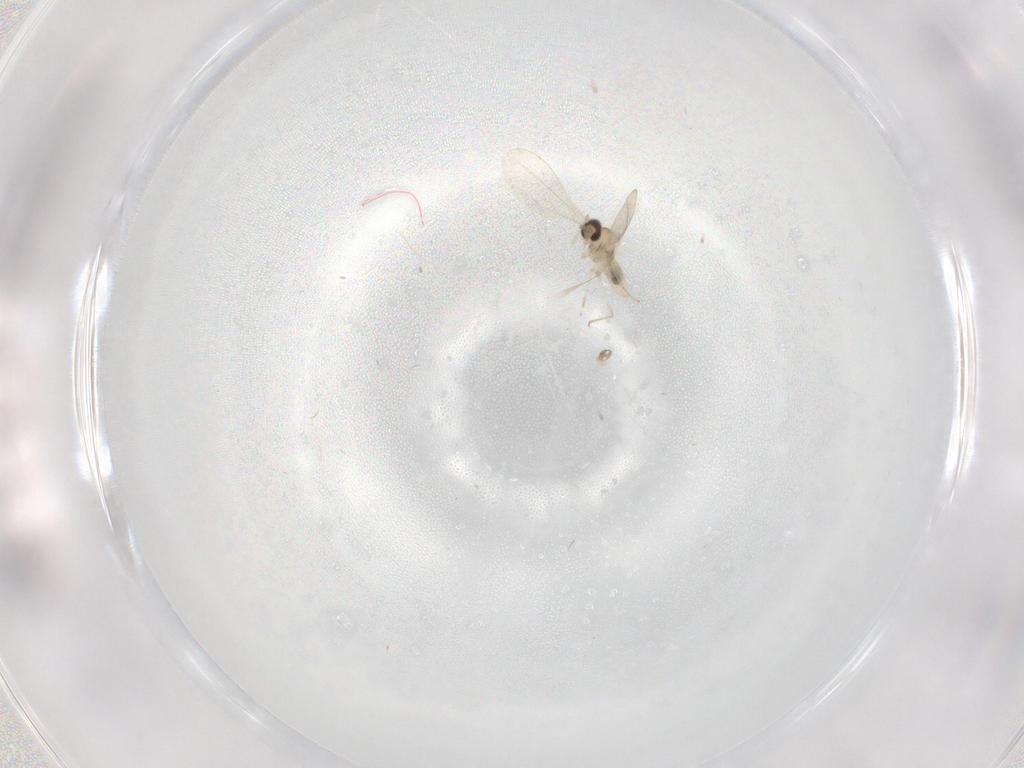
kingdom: Animalia
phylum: Arthropoda
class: Insecta
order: Diptera
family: Cecidomyiidae
